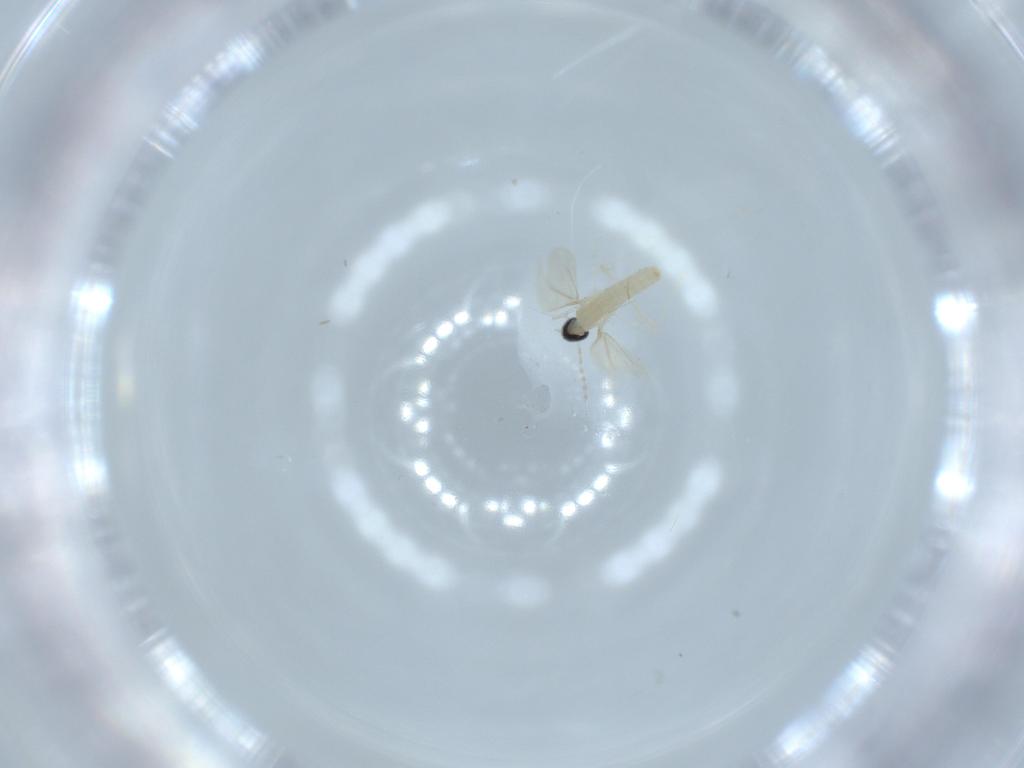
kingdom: Animalia
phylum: Arthropoda
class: Insecta
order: Diptera
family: Cecidomyiidae
